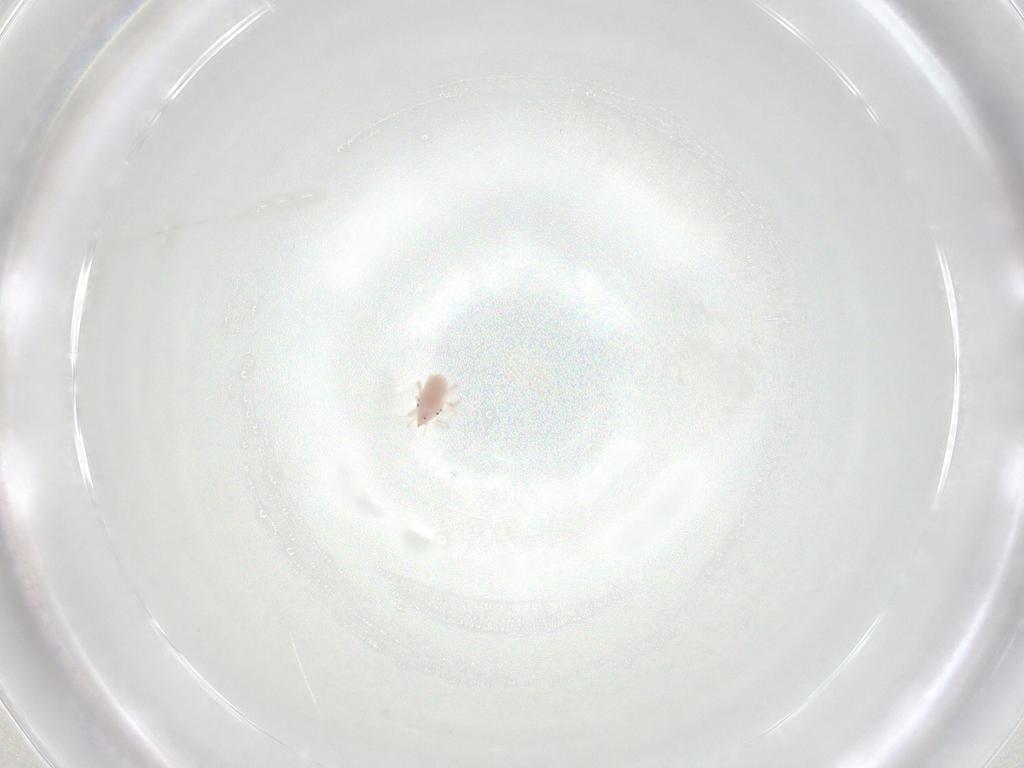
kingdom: Animalia
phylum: Arthropoda
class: Arachnida
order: Trombidiformes
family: Bdellidae
